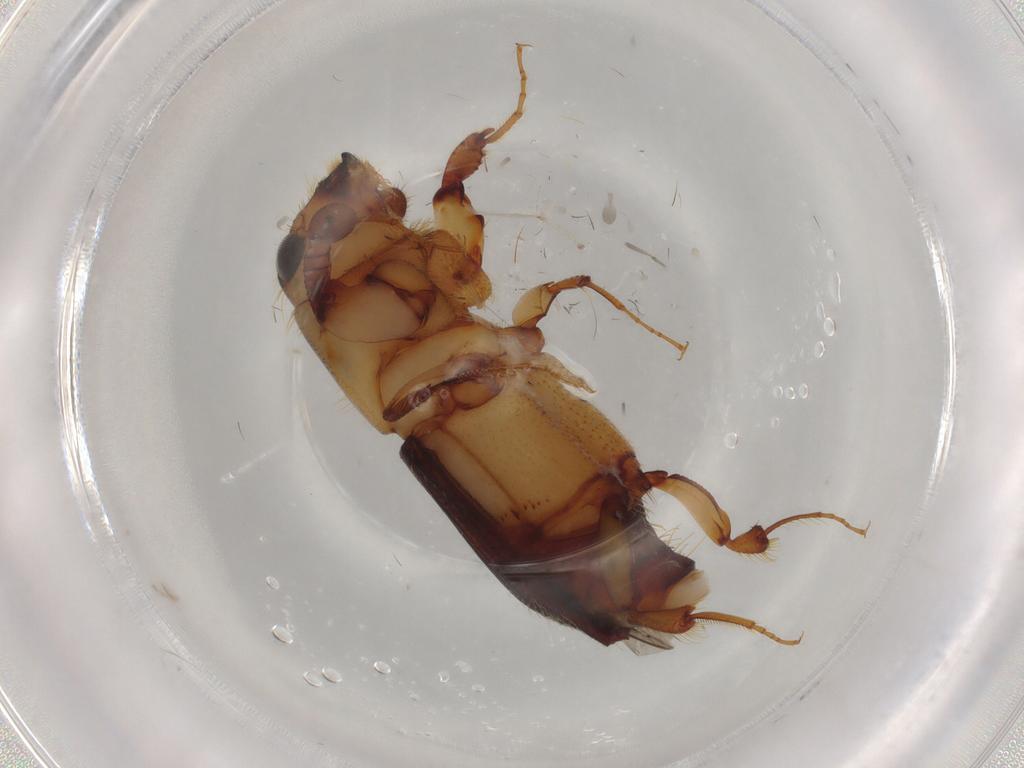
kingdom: Animalia
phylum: Arthropoda
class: Insecta
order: Coleoptera
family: Curculionidae
